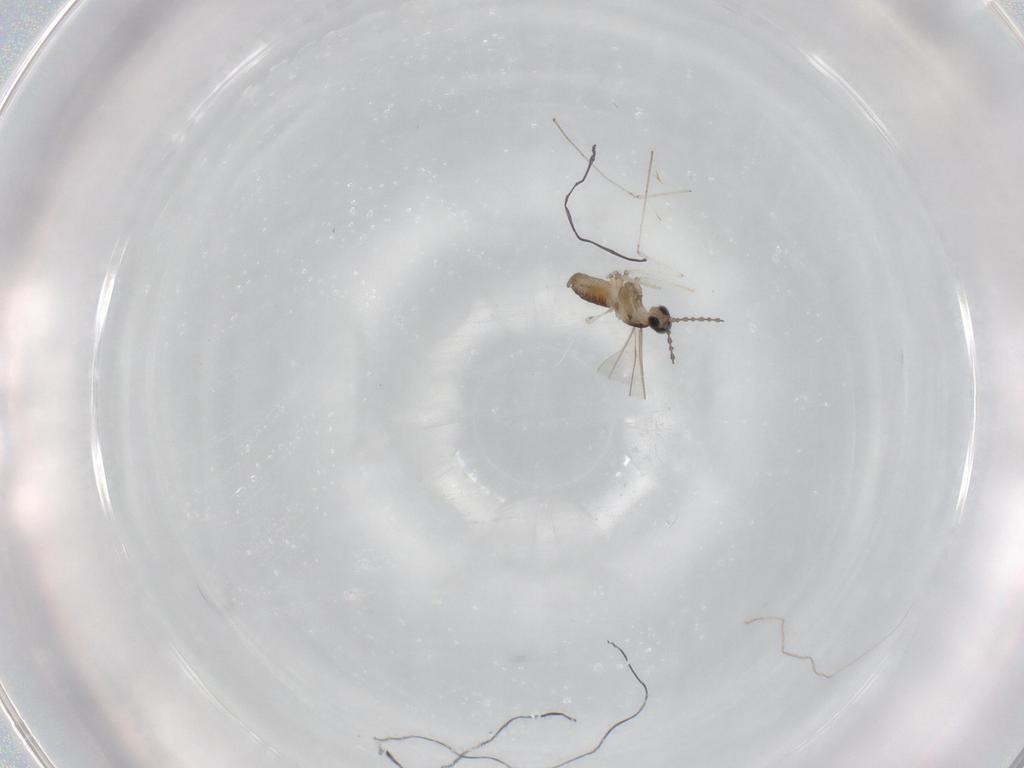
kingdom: Animalia
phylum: Arthropoda
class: Insecta
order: Diptera
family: Cecidomyiidae
